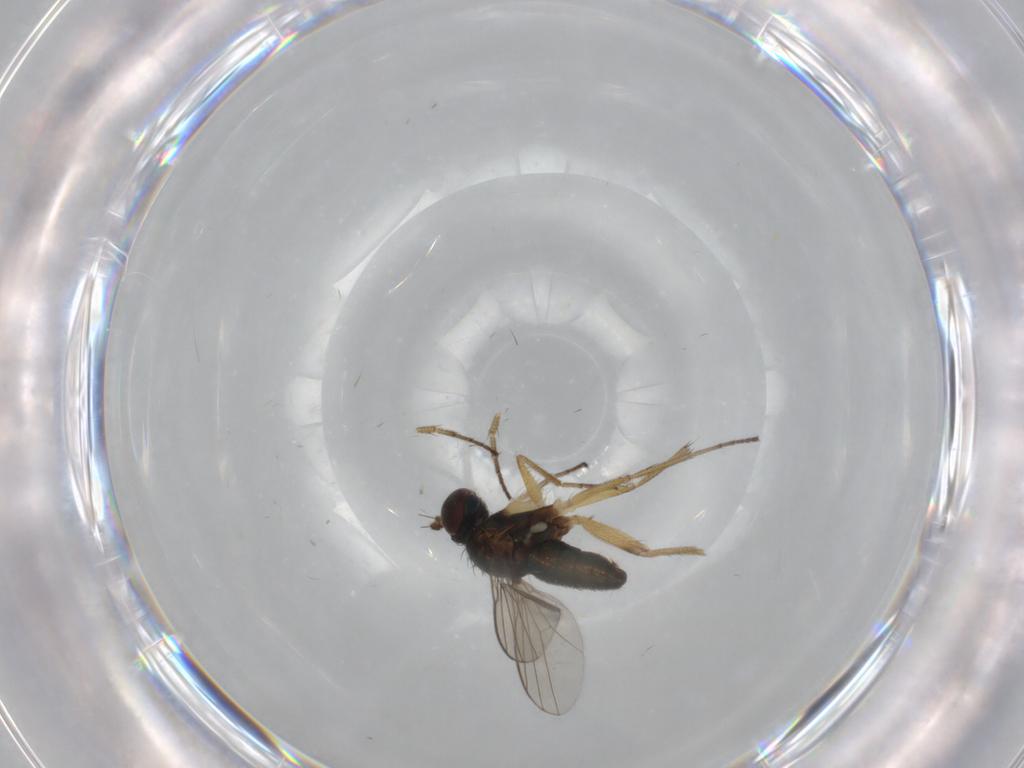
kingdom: Animalia
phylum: Arthropoda
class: Insecta
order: Diptera
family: Dolichopodidae
